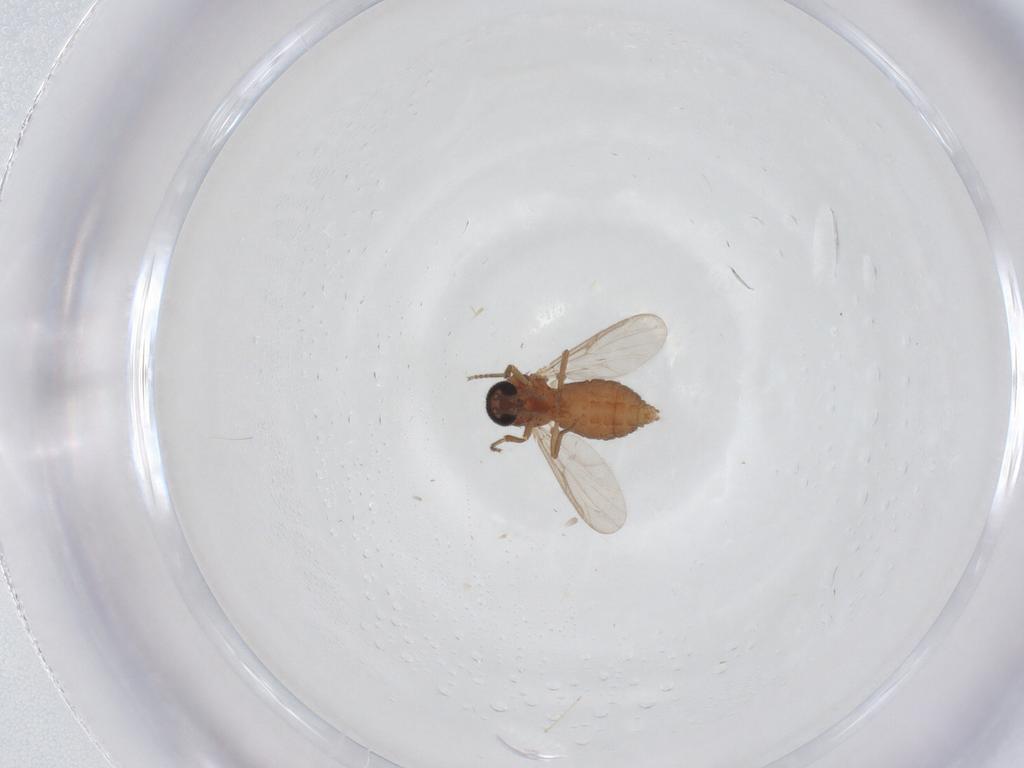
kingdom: Animalia
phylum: Arthropoda
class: Insecta
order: Diptera
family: Ceratopogonidae
